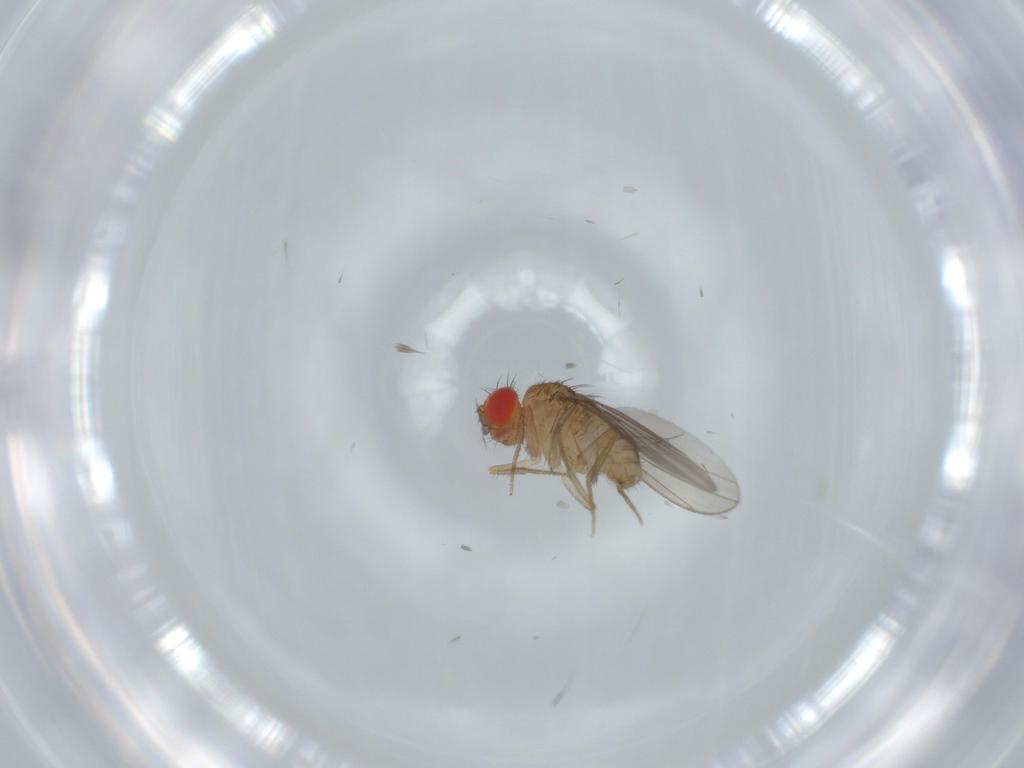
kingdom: Animalia
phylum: Arthropoda
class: Insecta
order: Diptera
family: Drosophilidae
